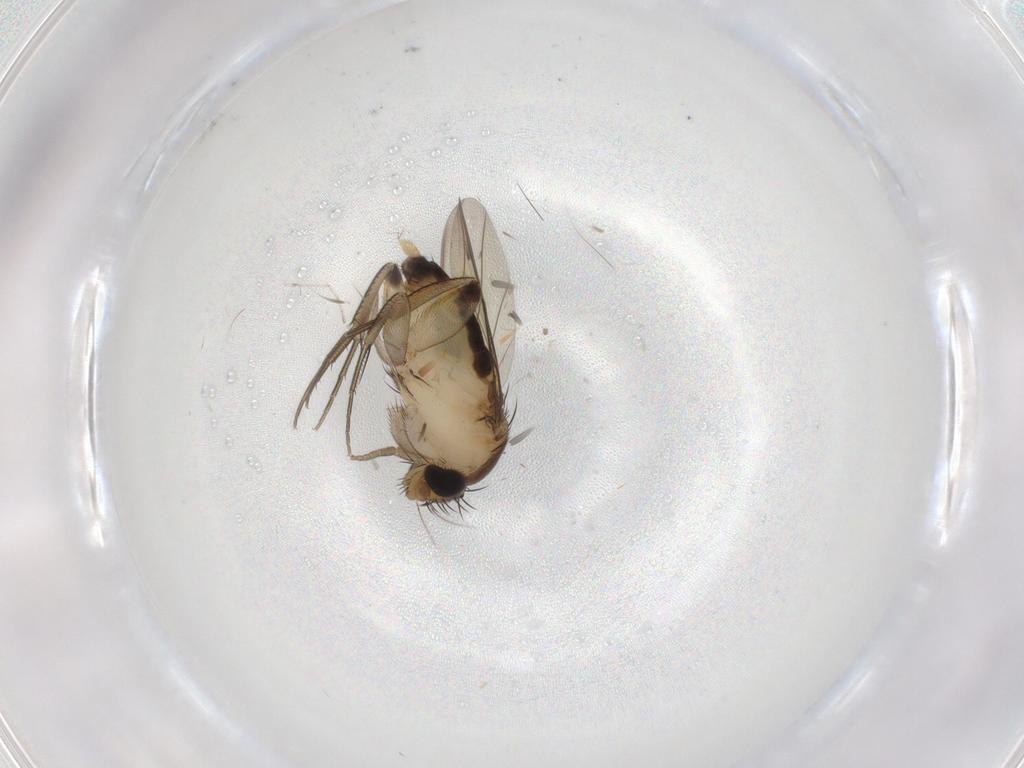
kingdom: Animalia
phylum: Arthropoda
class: Insecta
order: Diptera
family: Phoridae
